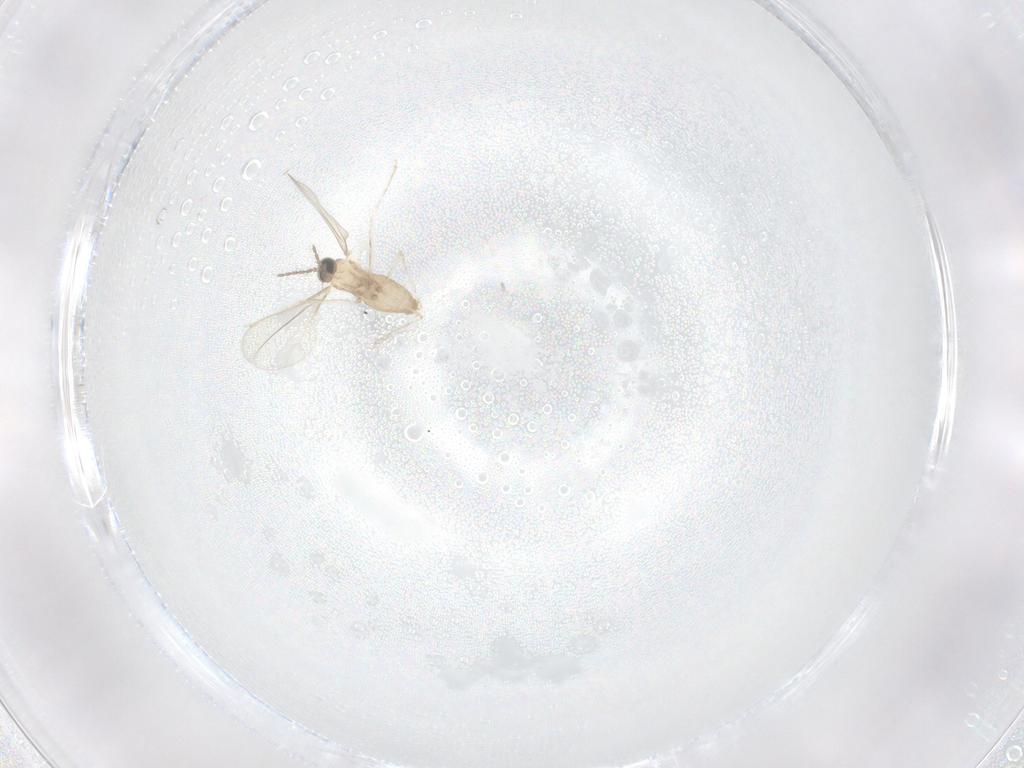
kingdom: Animalia
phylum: Arthropoda
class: Insecta
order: Diptera
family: Cecidomyiidae
